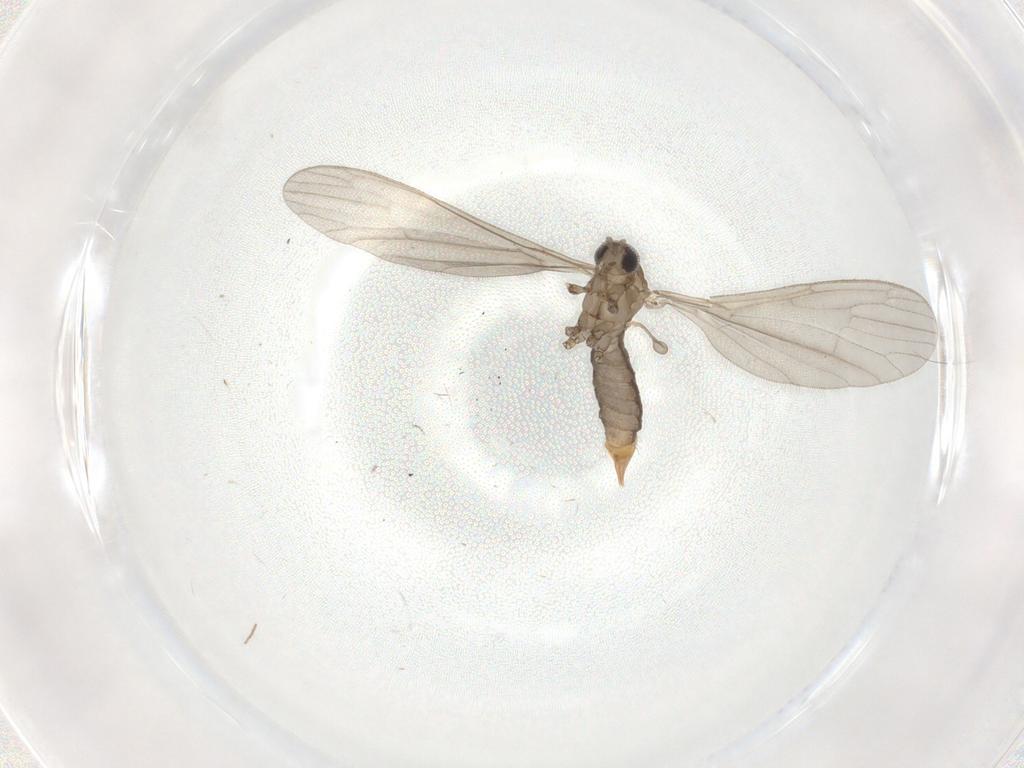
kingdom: Animalia
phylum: Arthropoda
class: Insecta
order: Diptera
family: Limoniidae
